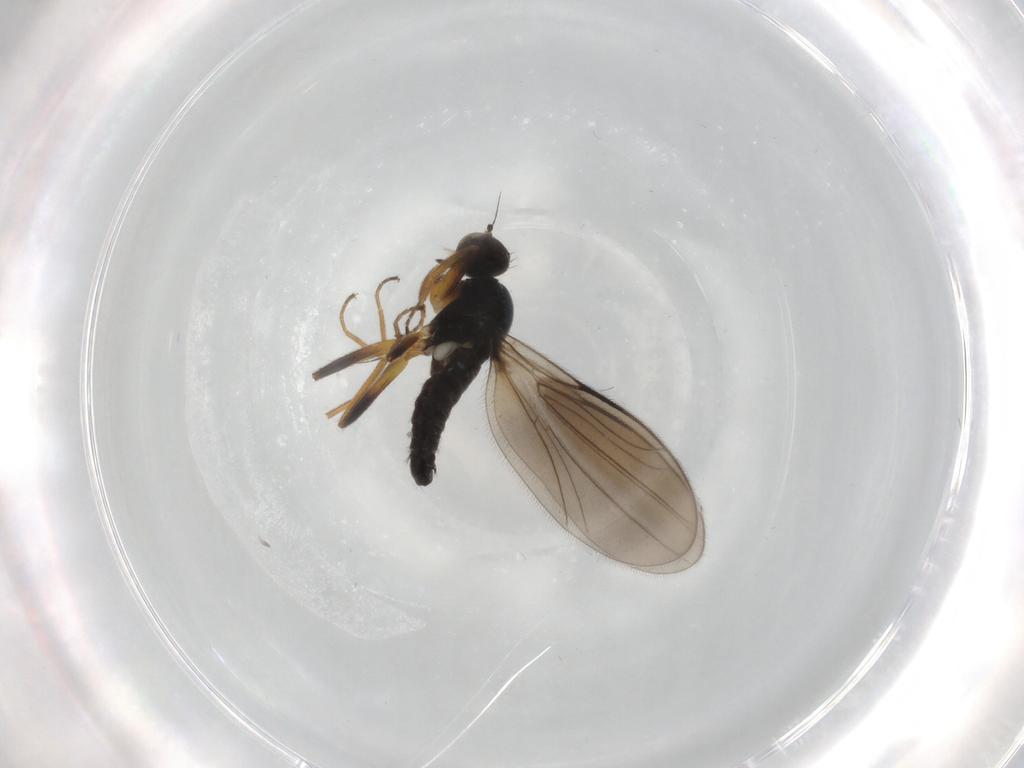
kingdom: Animalia
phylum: Arthropoda
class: Insecta
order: Diptera
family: Hybotidae
